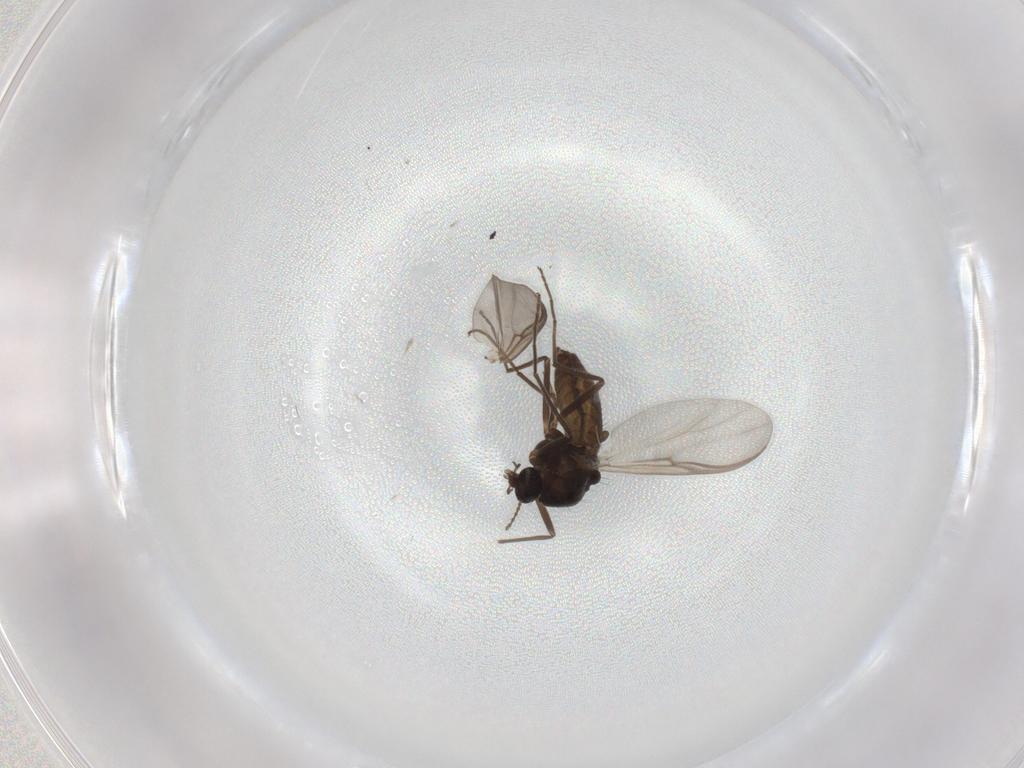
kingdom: Animalia
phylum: Arthropoda
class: Insecta
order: Diptera
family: Chironomidae
